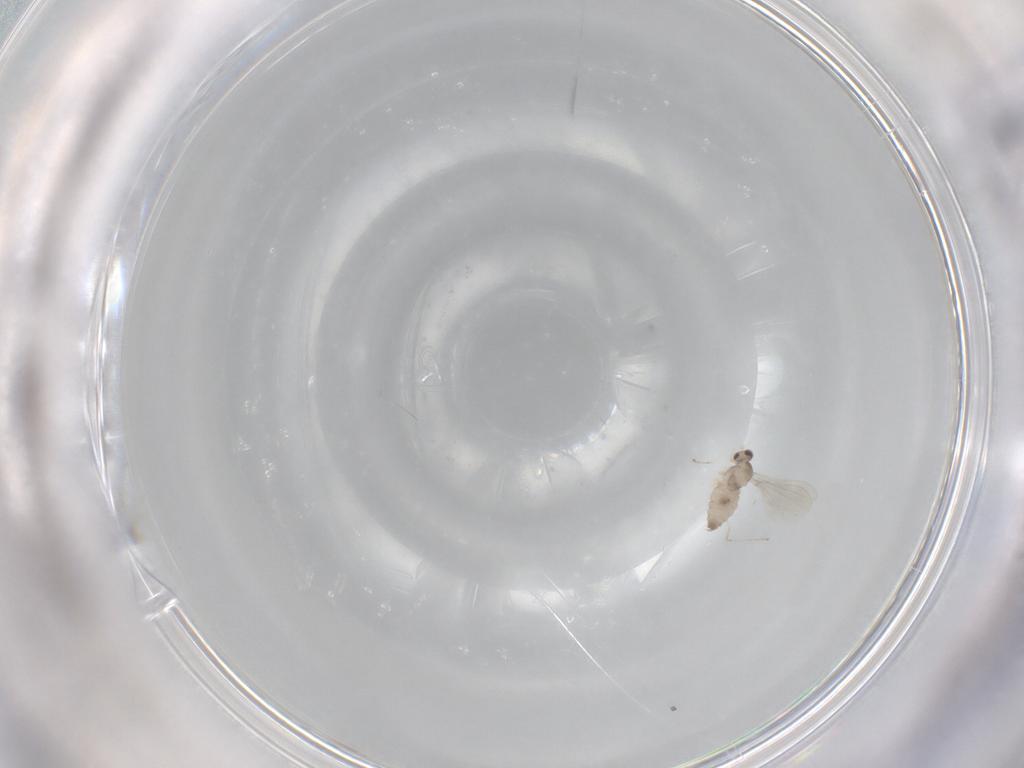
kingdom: Animalia
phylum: Arthropoda
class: Insecta
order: Diptera
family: Cecidomyiidae
